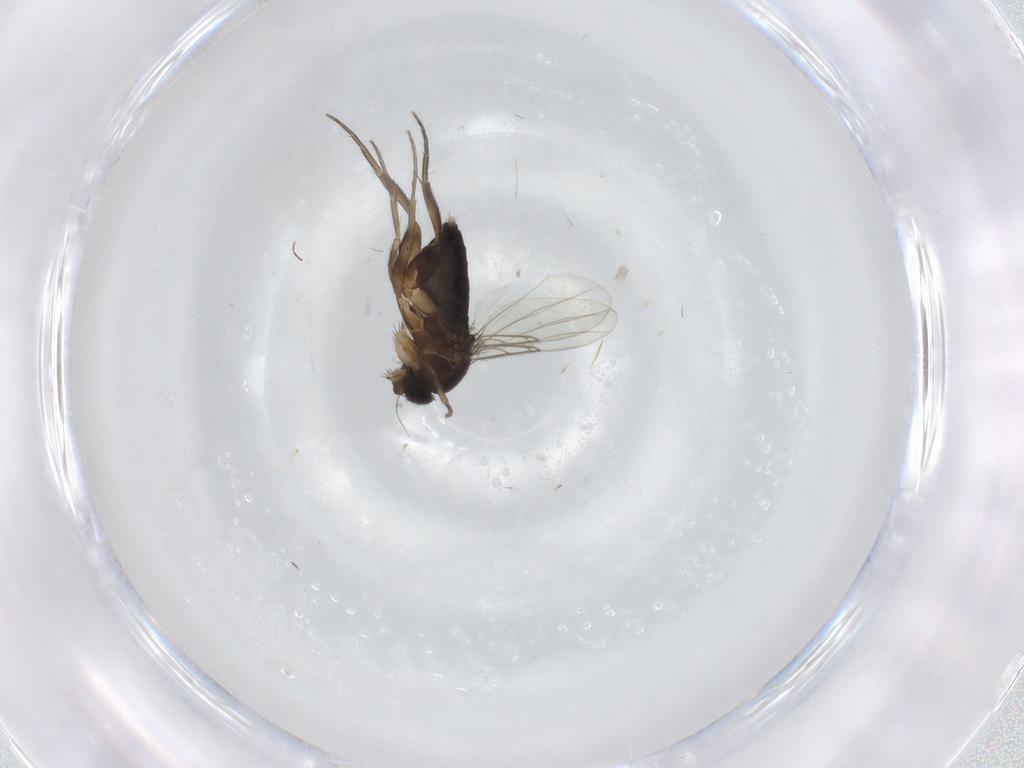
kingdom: Animalia
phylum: Arthropoda
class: Insecta
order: Diptera
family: Phoridae
